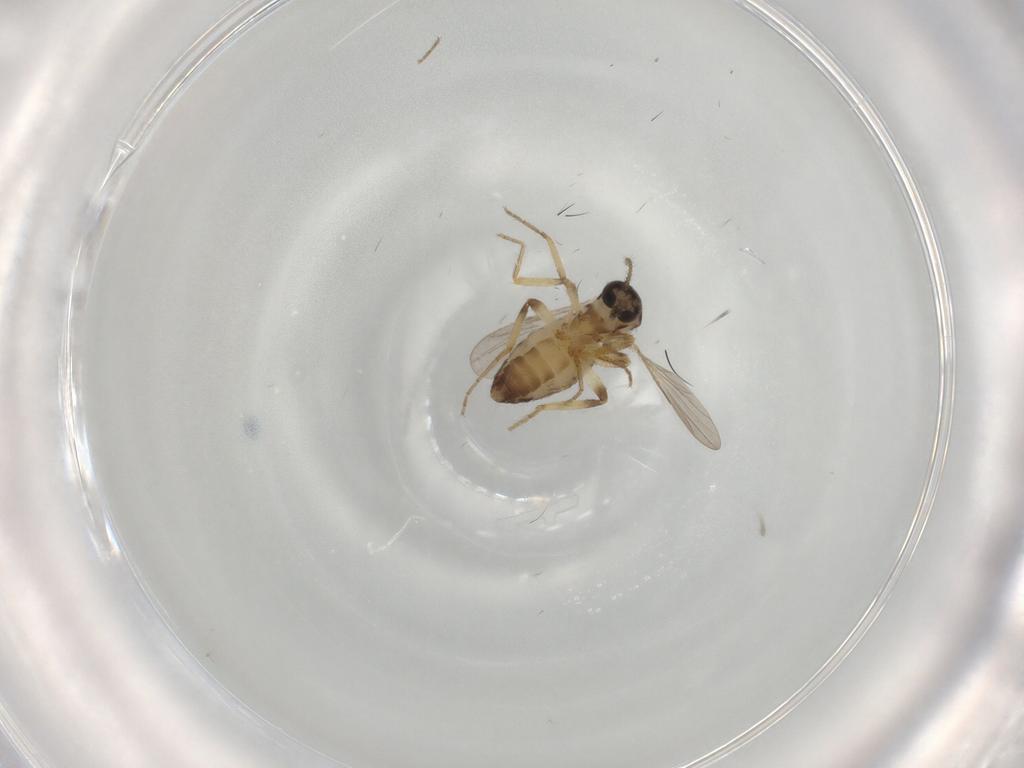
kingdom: Animalia
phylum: Arthropoda
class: Insecta
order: Diptera
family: Ceratopogonidae
